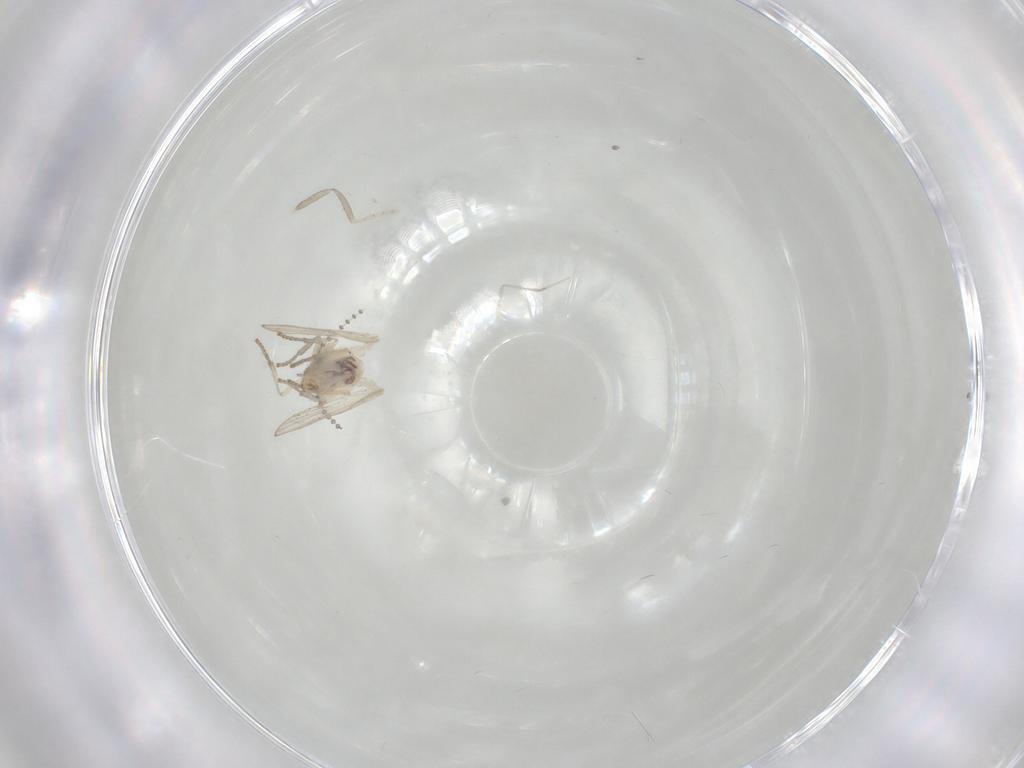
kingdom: Animalia
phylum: Arthropoda
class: Insecta
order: Diptera
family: Psychodidae
